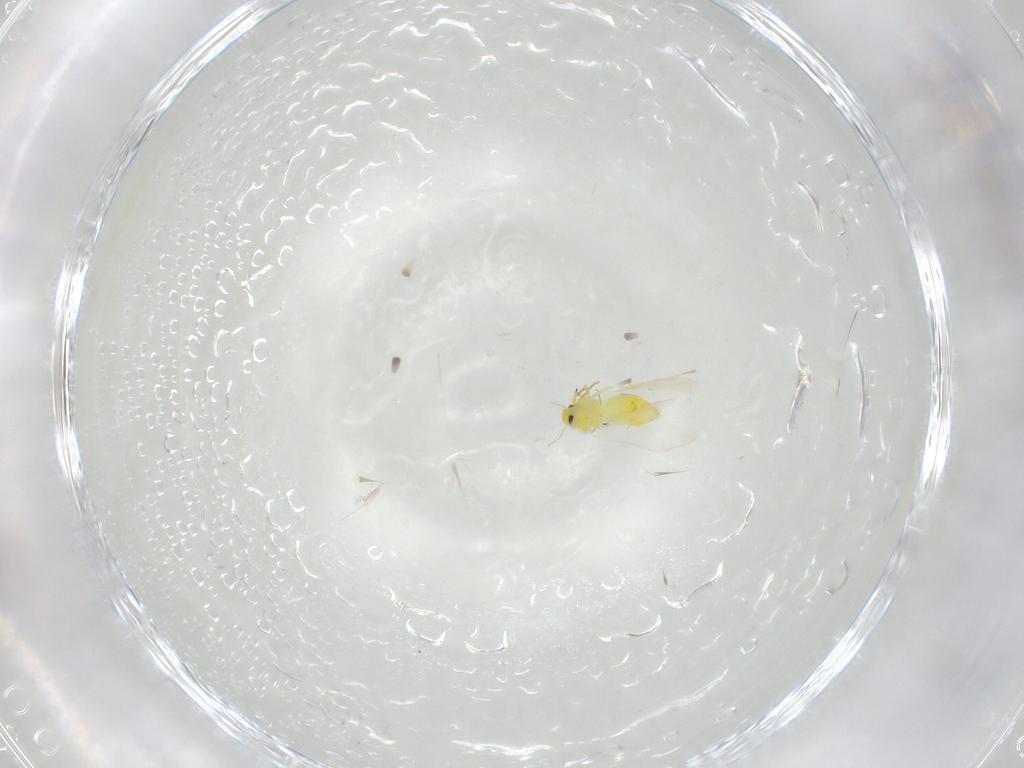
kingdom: Animalia
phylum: Arthropoda
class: Insecta
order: Hemiptera
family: Aleyrodidae
